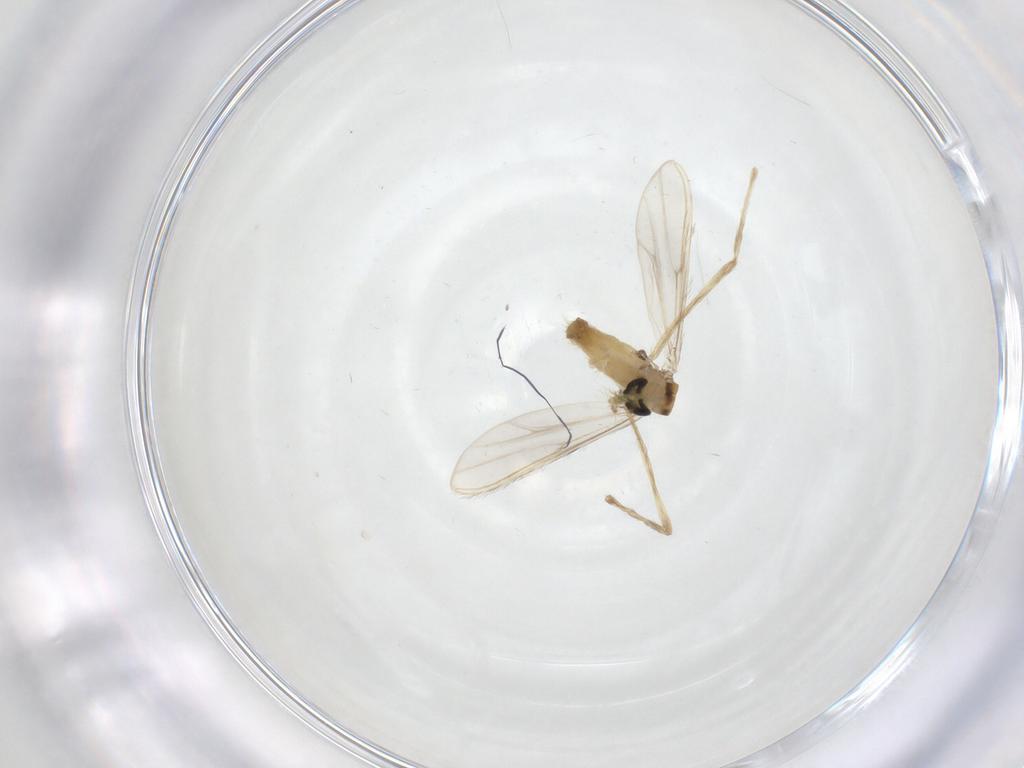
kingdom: Animalia
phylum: Arthropoda
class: Insecta
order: Diptera
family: Chironomidae
